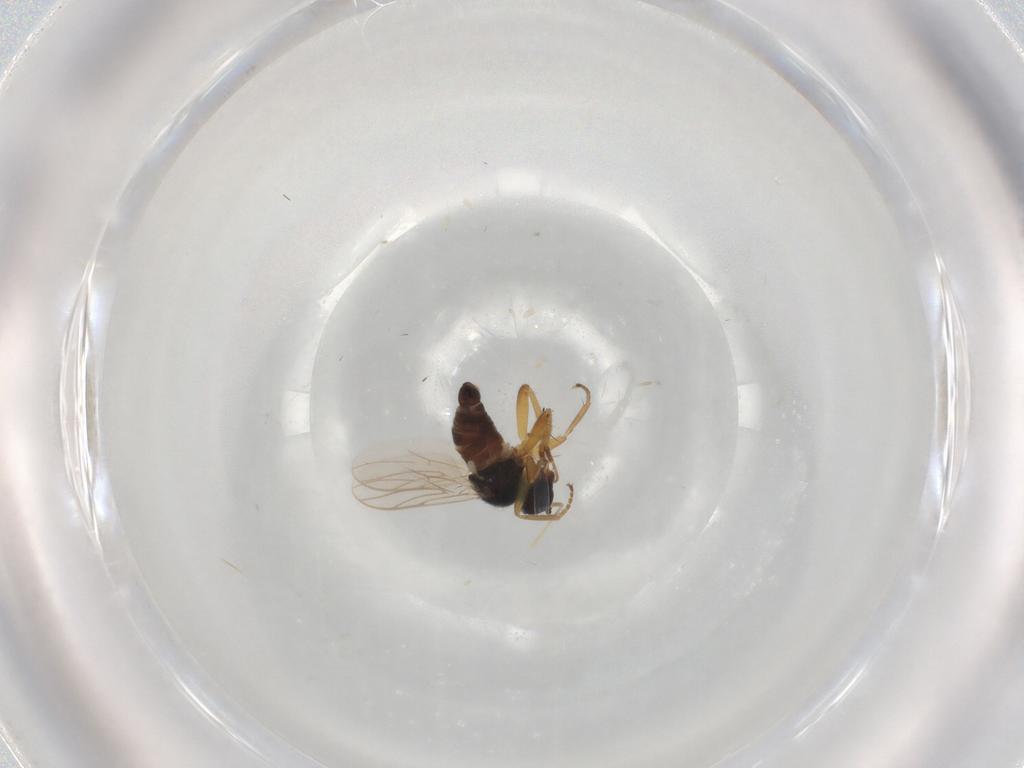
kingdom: Animalia
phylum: Arthropoda
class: Insecta
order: Diptera
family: Hybotidae
